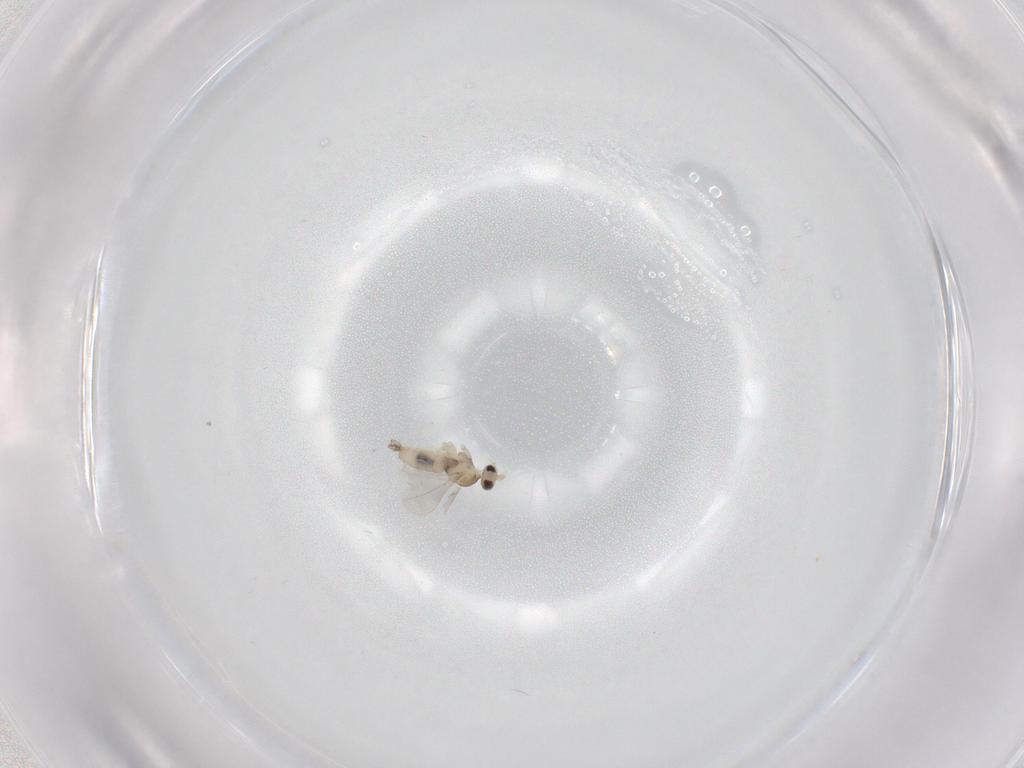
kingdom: Animalia
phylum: Arthropoda
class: Insecta
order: Diptera
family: Cecidomyiidae
